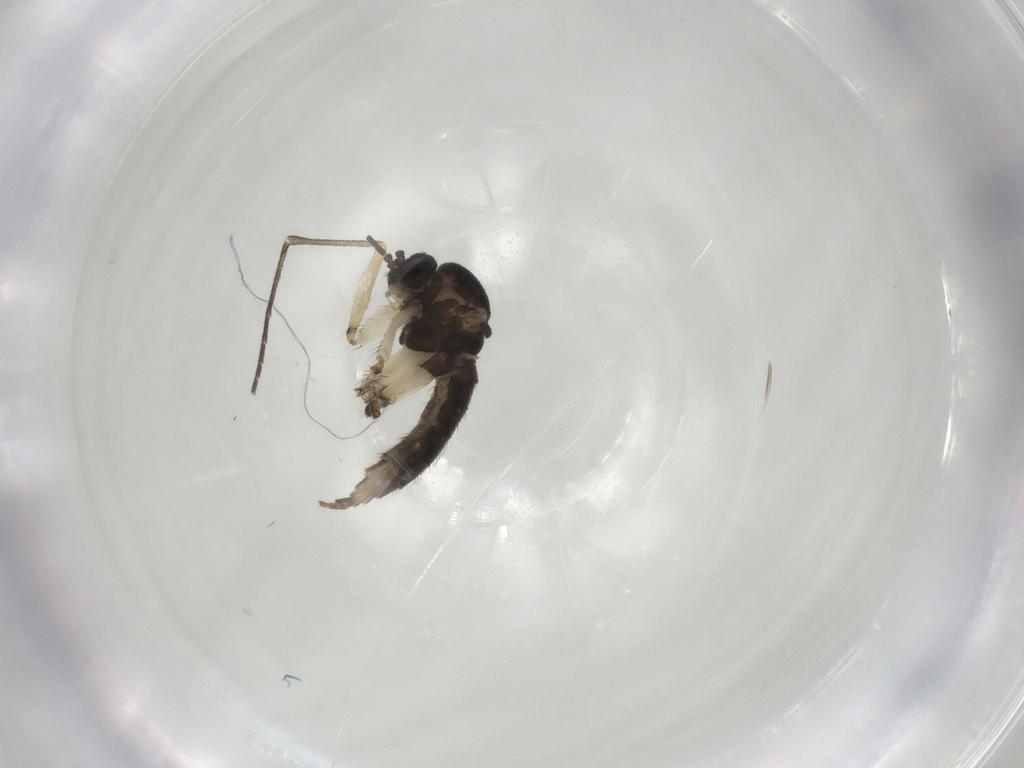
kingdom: Animalia
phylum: Arthropoda
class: Insecta
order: Diptera
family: Sciaridae
